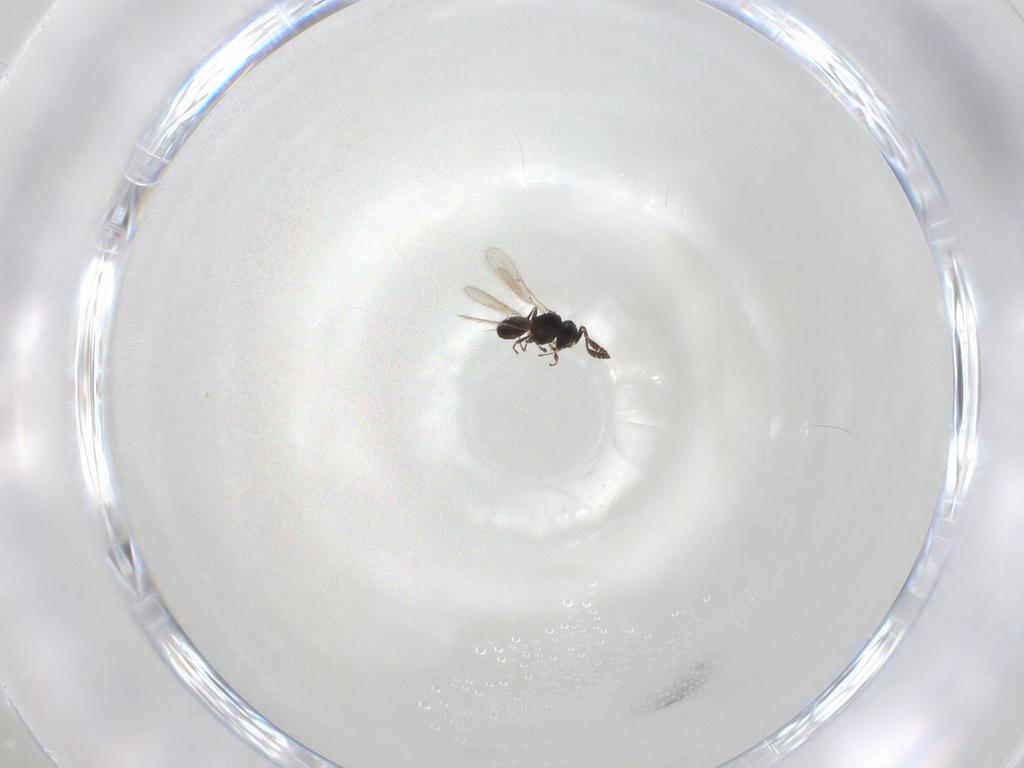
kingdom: Animalia
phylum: Arthropoda
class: Insecta
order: Hymenoptera
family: Scelionidae
